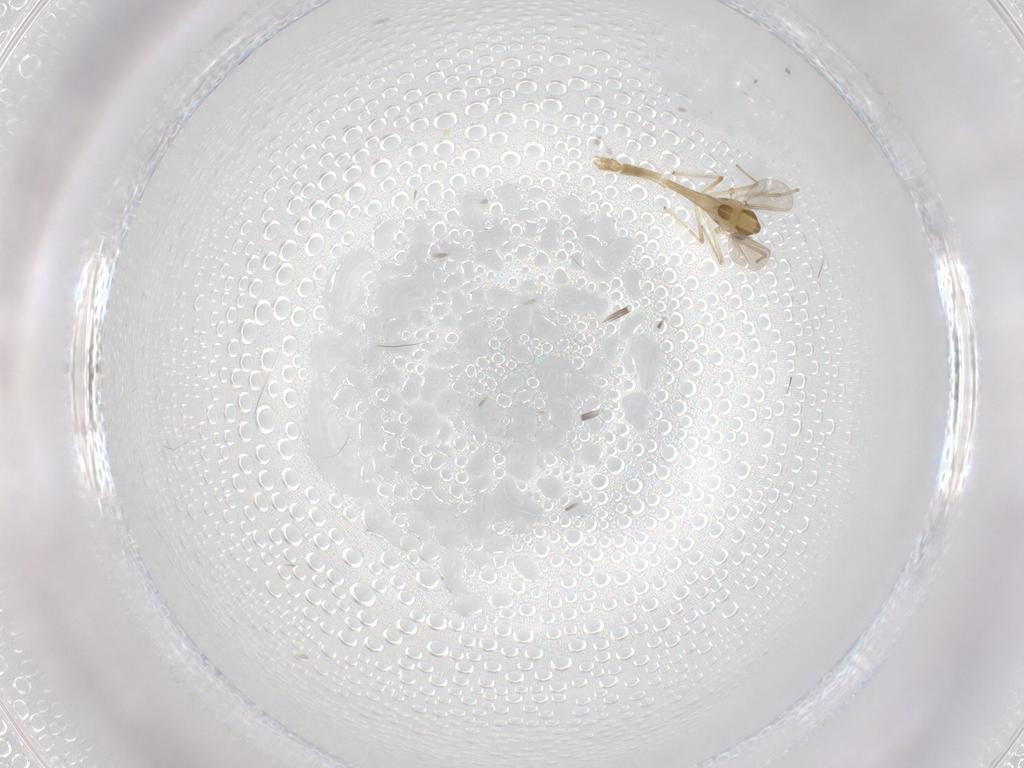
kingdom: Animalia
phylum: Arthropoda
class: Insecta
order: Diptera
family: Chironomidae
